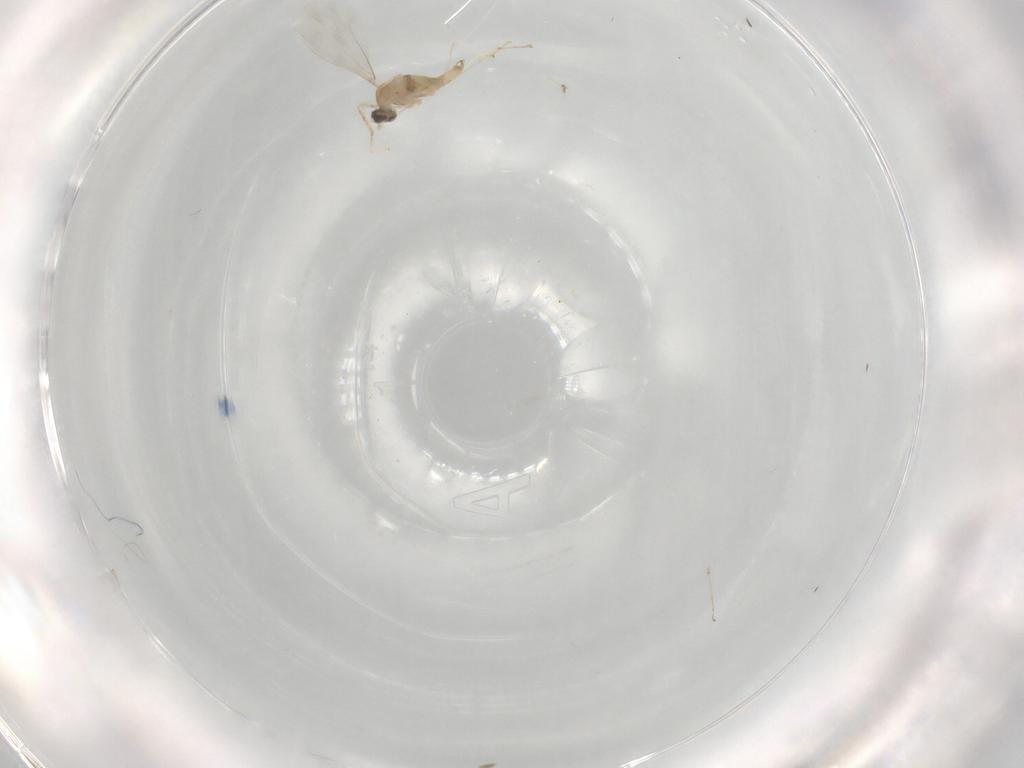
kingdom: Animalia
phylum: Arthropoda
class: Insecta
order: Diptera
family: Cecidomyiidae
